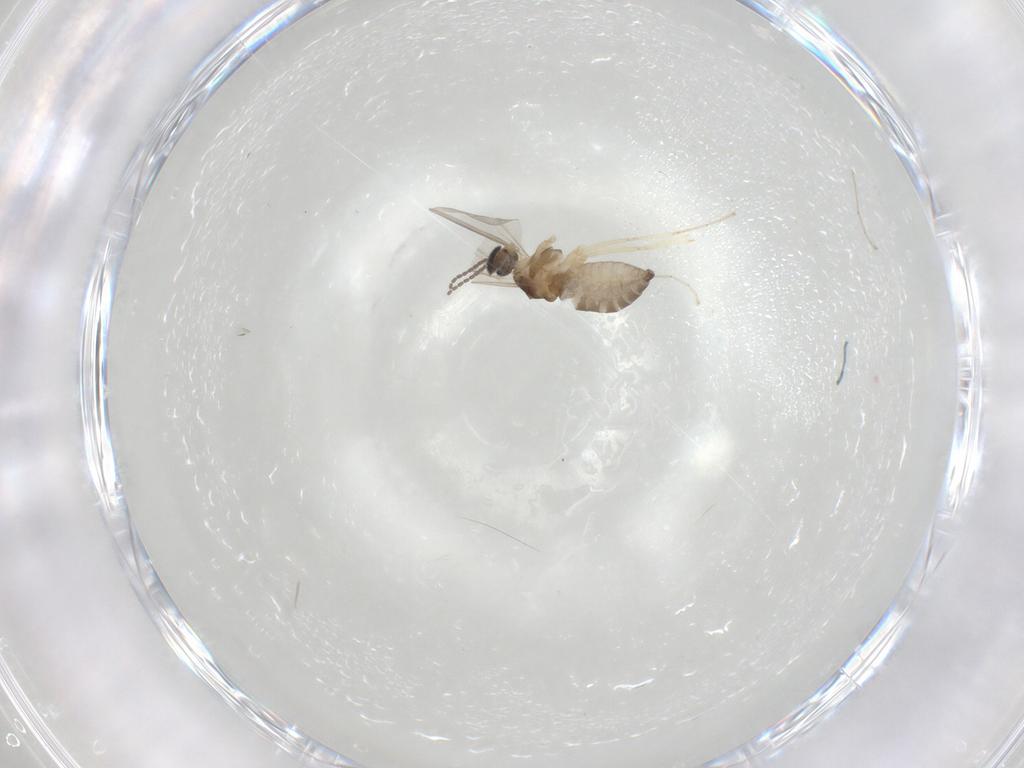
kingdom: Animalia
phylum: Arthropoda
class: Insecta
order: Diptera
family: Cecidomyiidae
